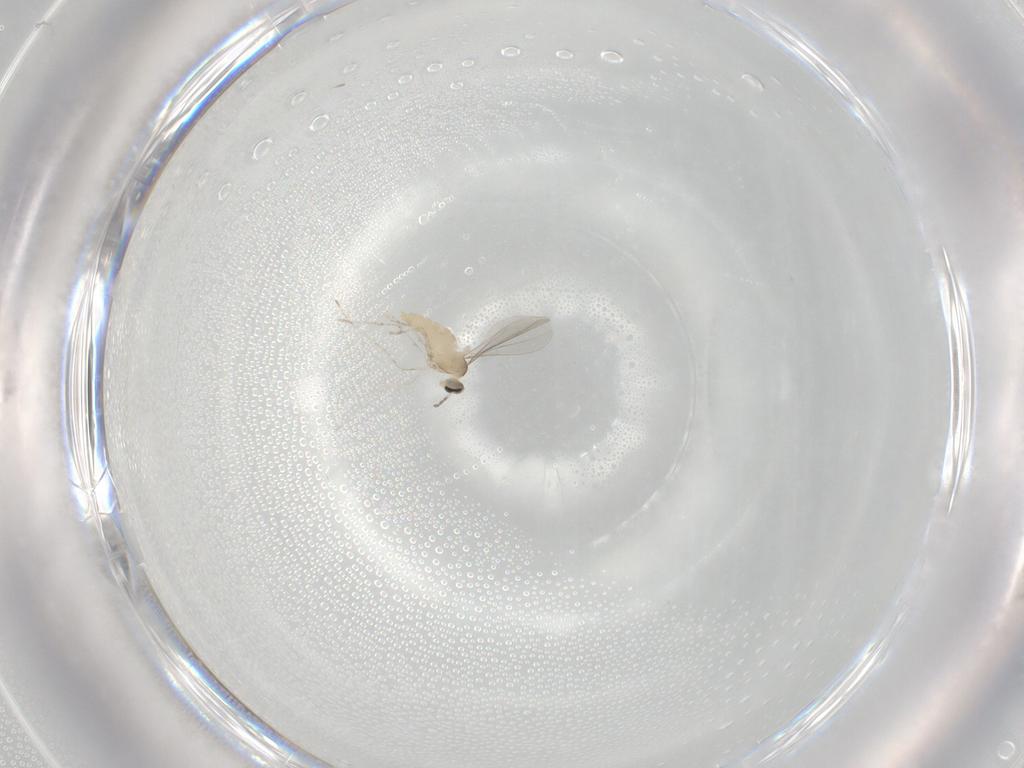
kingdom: Animalia
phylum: Arthropoda
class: Insecta
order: Diptera
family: Cecidomyiidae
